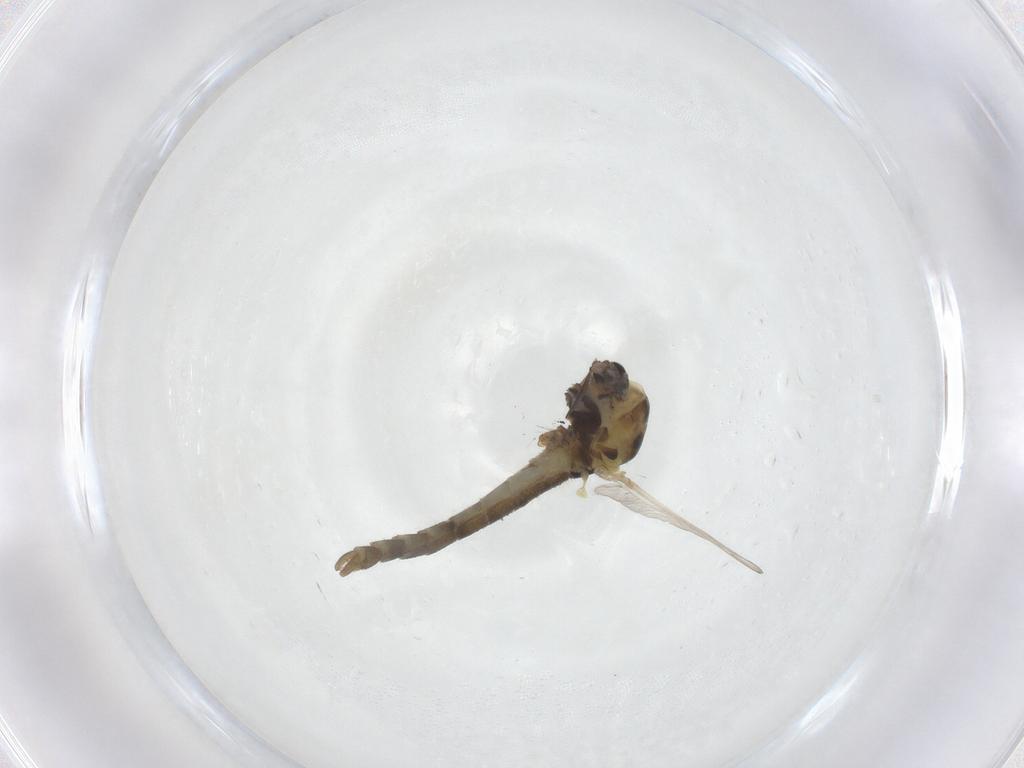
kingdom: Animalia
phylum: Arthropoda
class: Insecta
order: Diptera
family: Chironomidae
